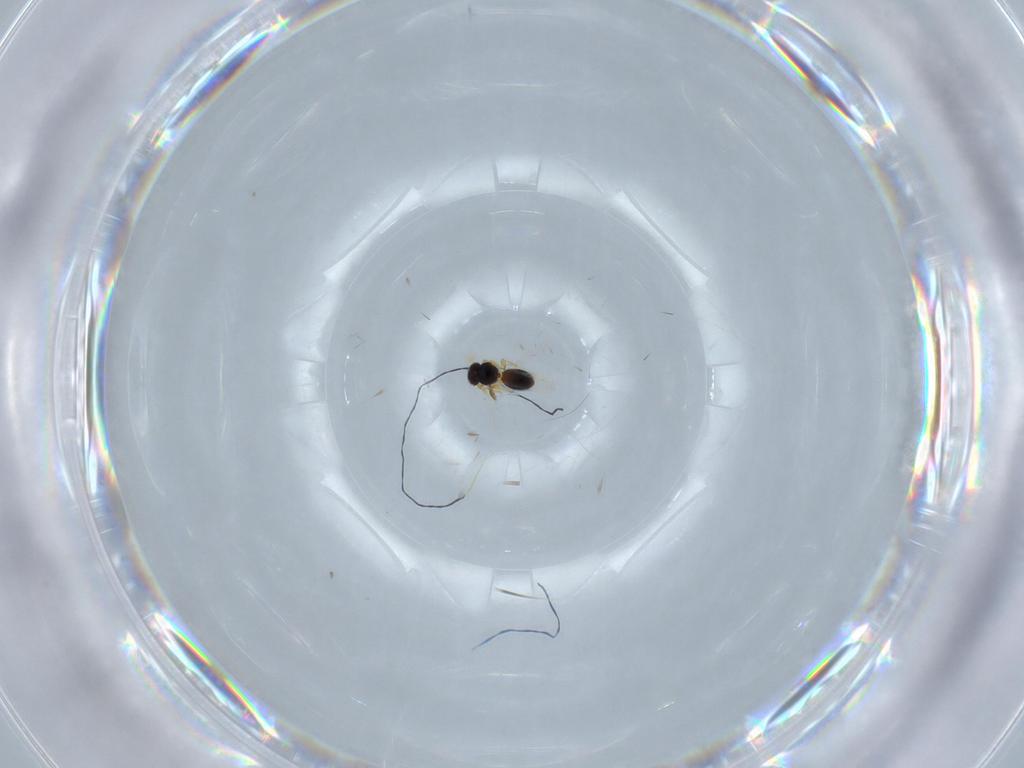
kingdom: Animalia
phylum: Arthropoda
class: Insecta
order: Hymenoptera
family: Platygastridae
